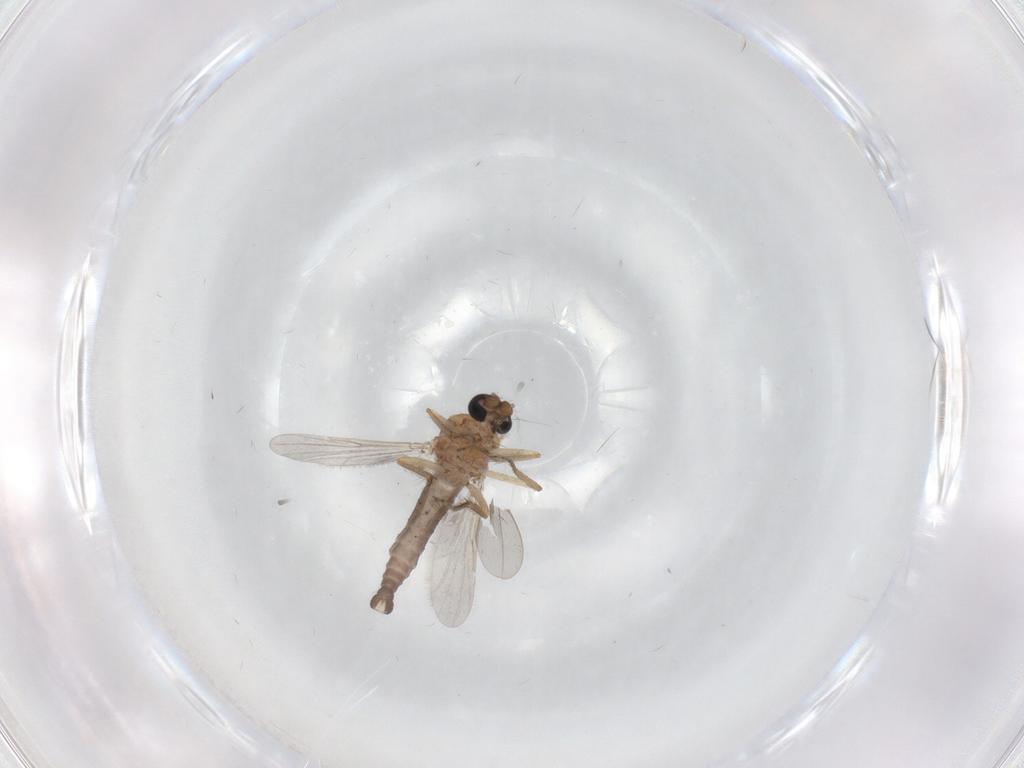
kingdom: Animalia
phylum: Arthropoda
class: Insecta
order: Diptera
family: Ceratopogonidae
